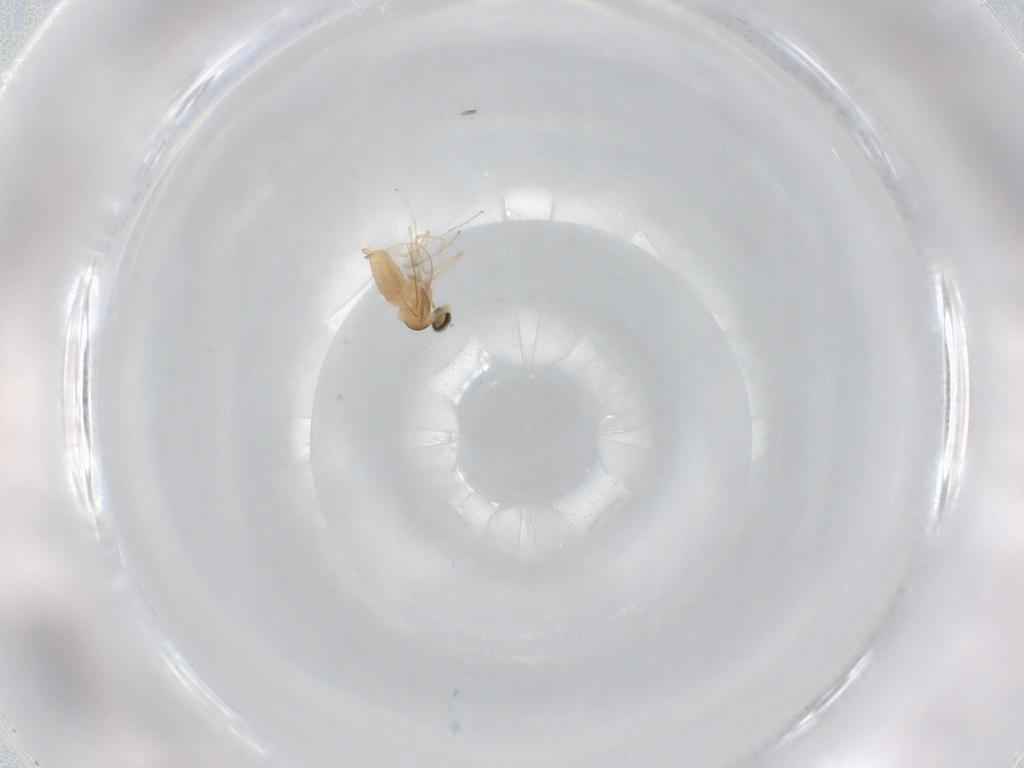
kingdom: Animalia
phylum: Arthropoda
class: Insecta
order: Diptera
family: Cecidomyiidae
